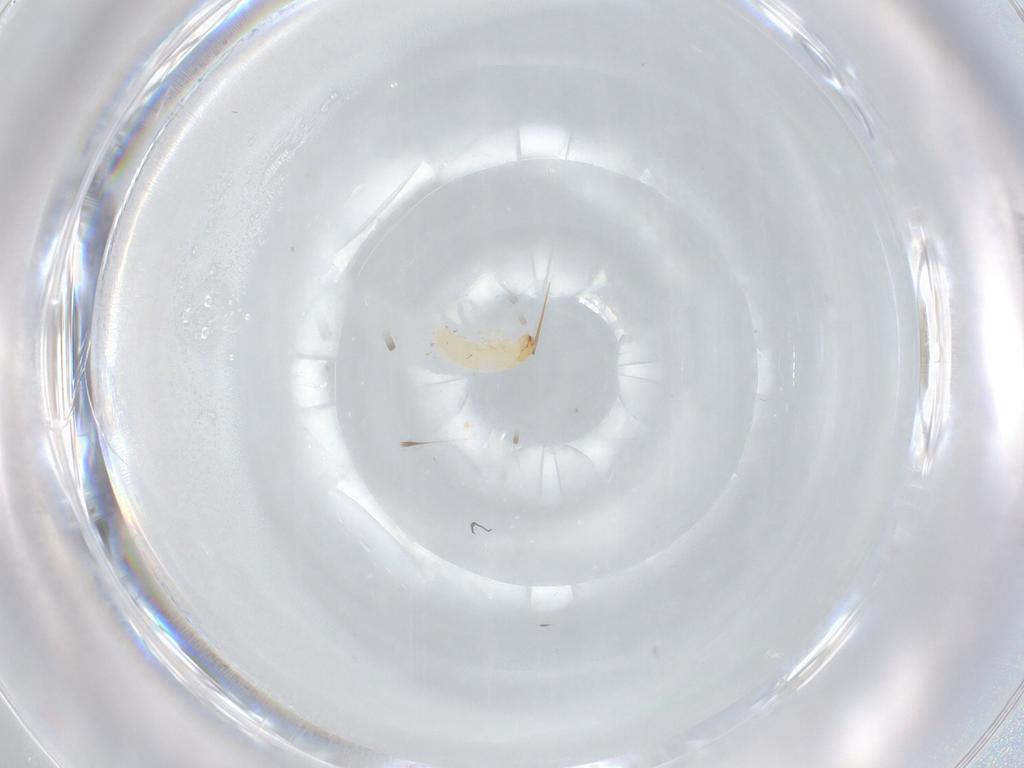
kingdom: Animalia
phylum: Arthropoda
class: Insecta
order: Coleoptera
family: Chrysomelidae
